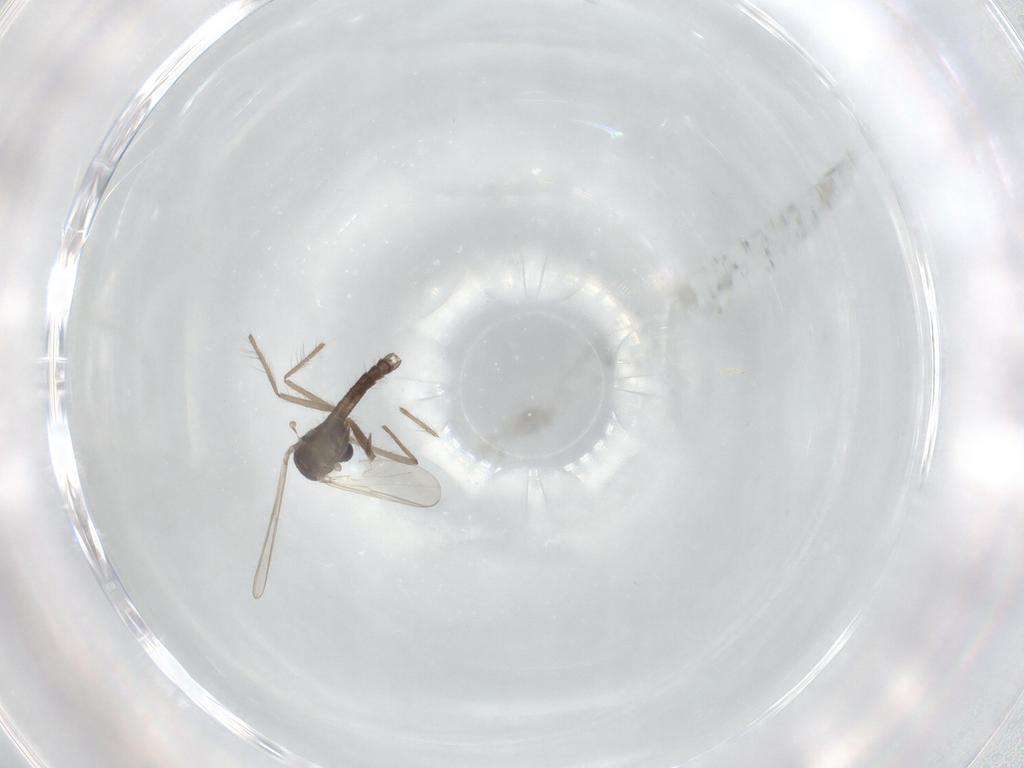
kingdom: Animalia
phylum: Arthropoda
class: Insecta
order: Diptera
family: Chironomidae
